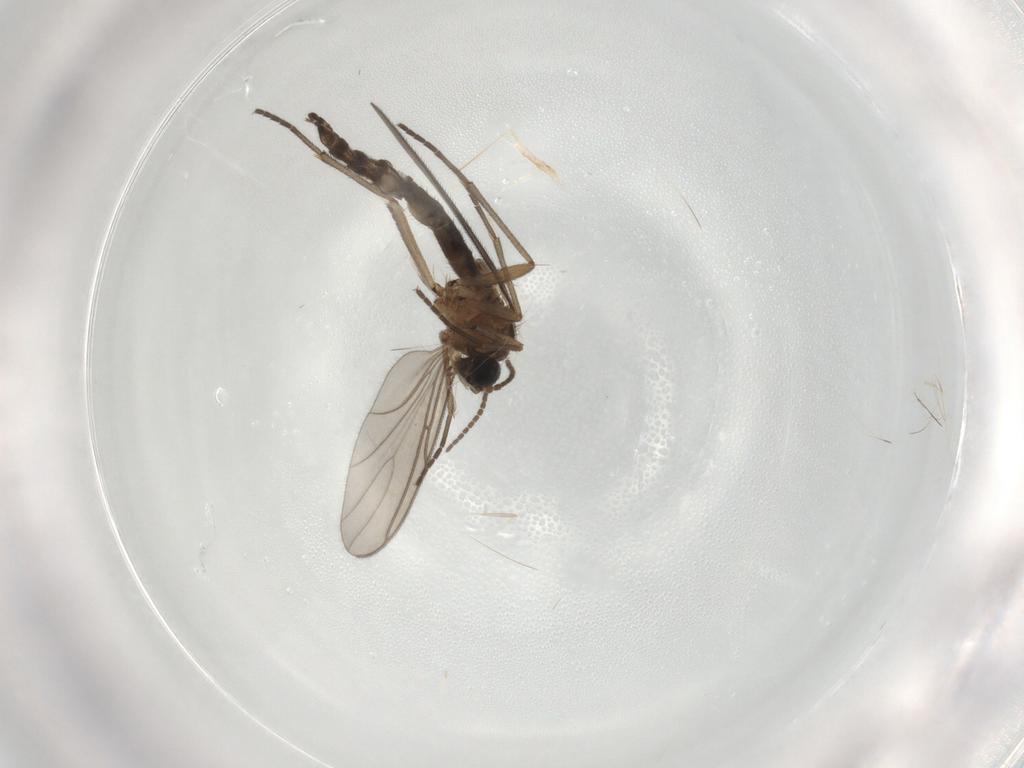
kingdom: Animalia
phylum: Arthropoda
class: Insecta
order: Diptera
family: Sciaridae
